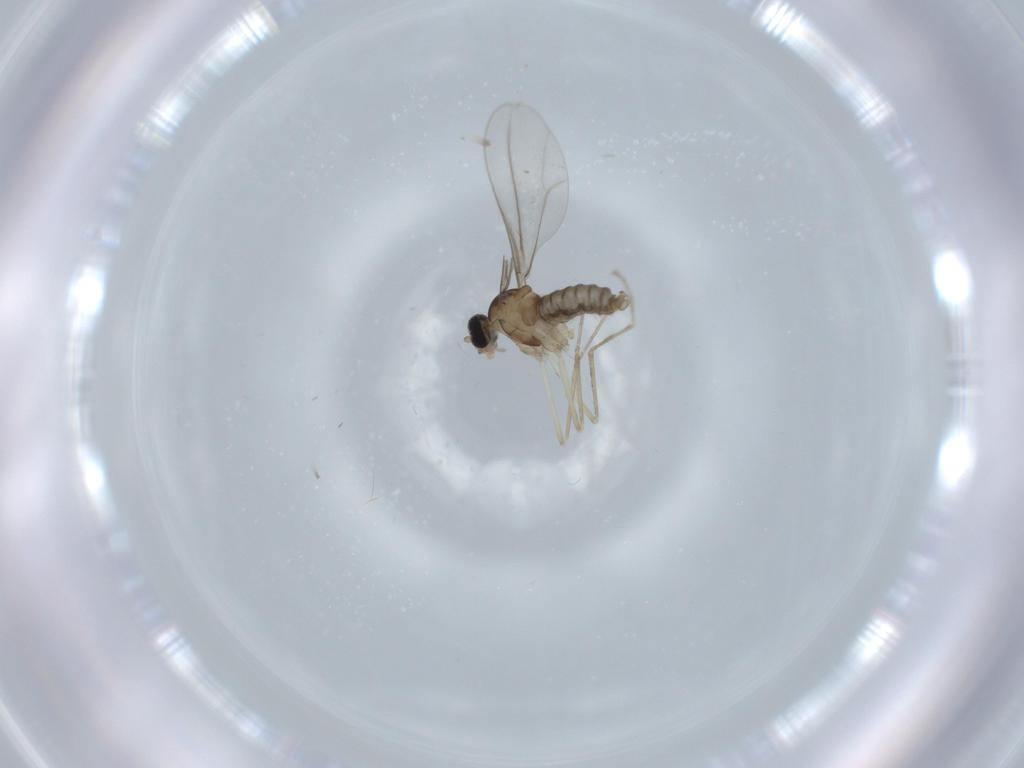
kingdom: Animalia
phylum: Arthropoda
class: Insecta
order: Diptera
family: Cecidomyiidae
